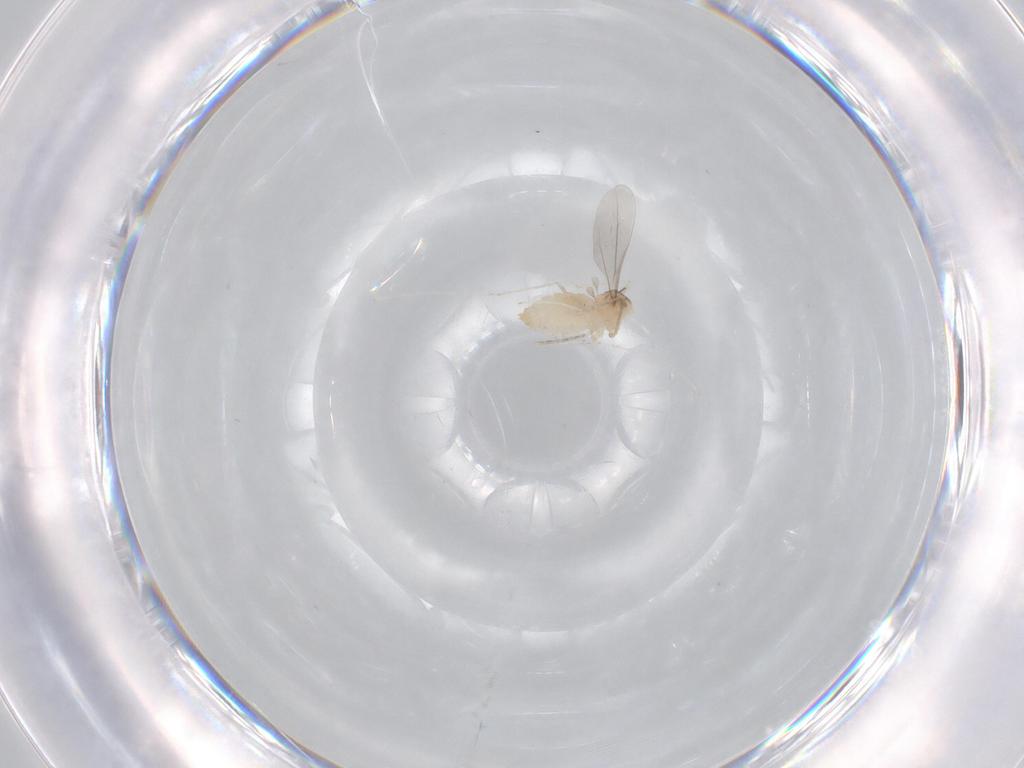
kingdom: Animalia
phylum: Arthropoda
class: Insecta
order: Diptera
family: Cecidomyiidae
